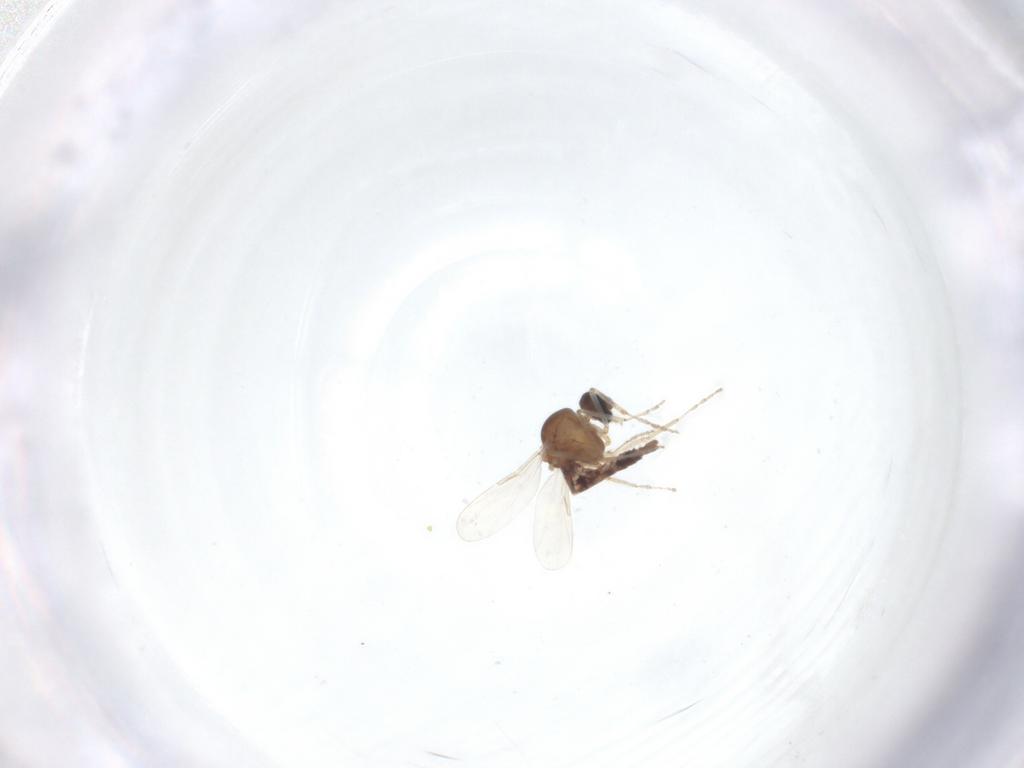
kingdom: Animalia
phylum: Arthropoda
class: Insecta
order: Diptera
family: Ceratopogonidae
